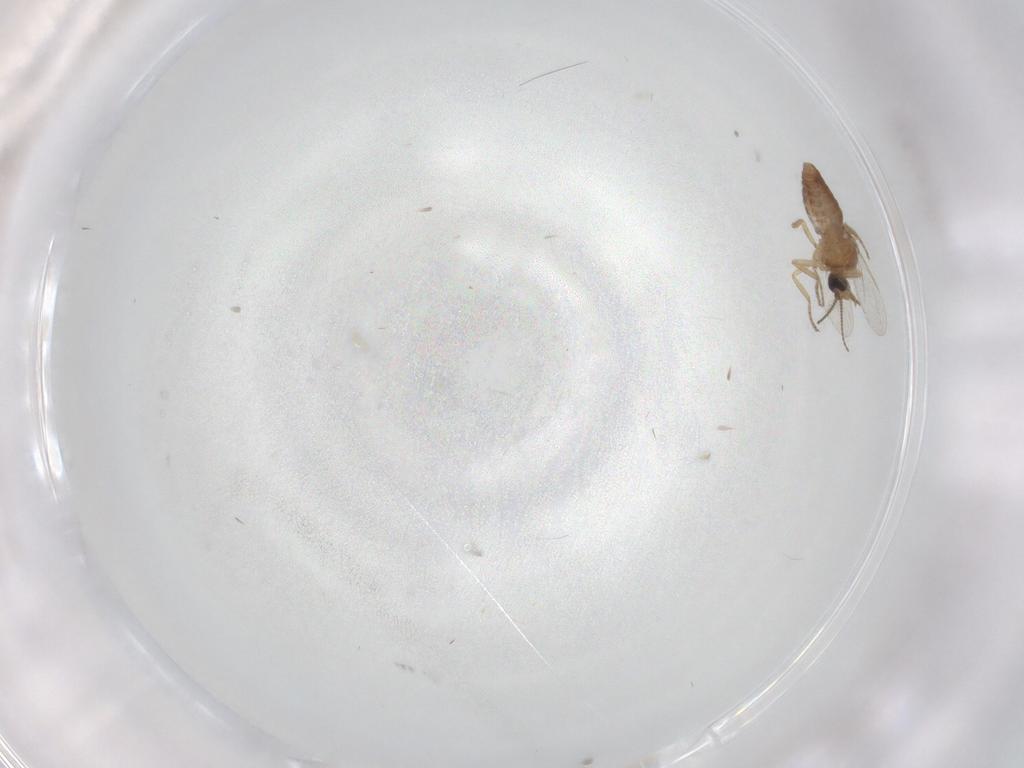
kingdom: Animalia
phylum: Arthropoda
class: Insecta
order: Diptera
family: Ceratopogonidae
